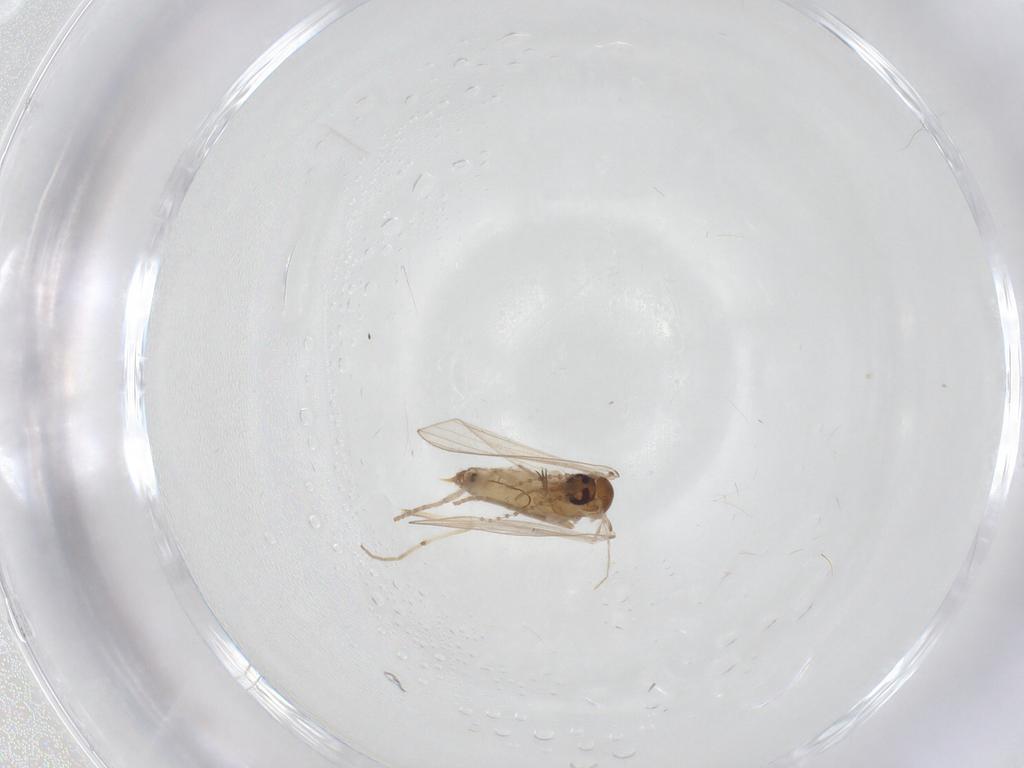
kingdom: Animalia
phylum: Arthropoda
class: Insecta
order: Diptera
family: Psychodidae
